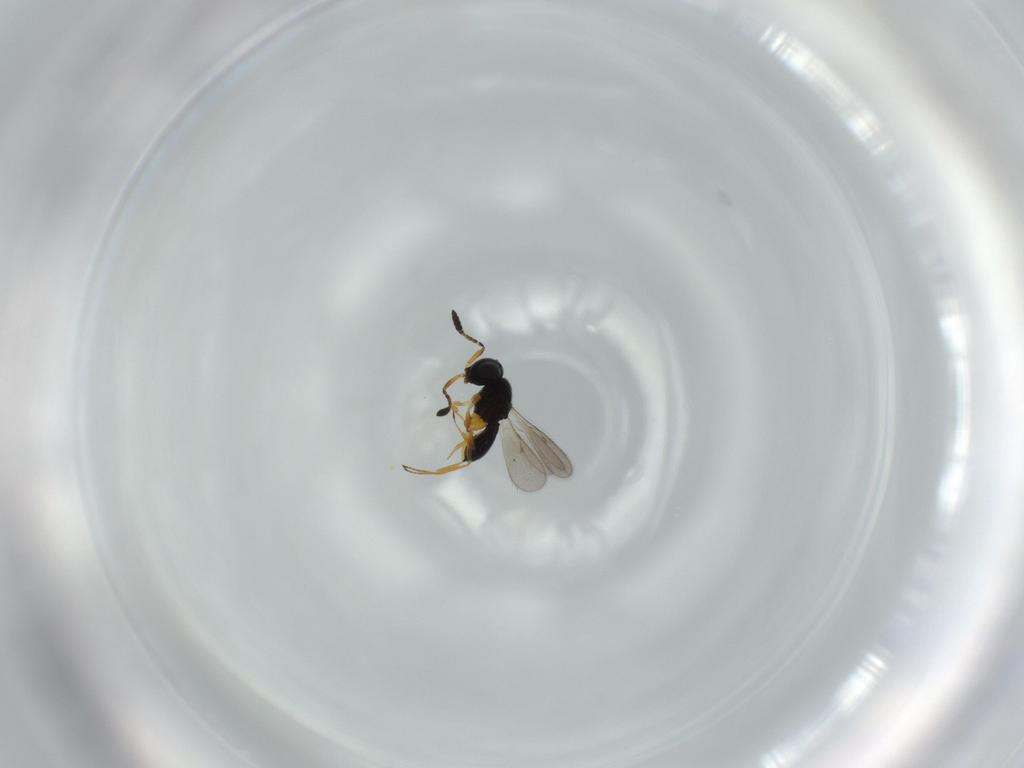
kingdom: Animalia
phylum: Arthropoda
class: Insecta
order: Hymenoptera
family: Scelionidae
